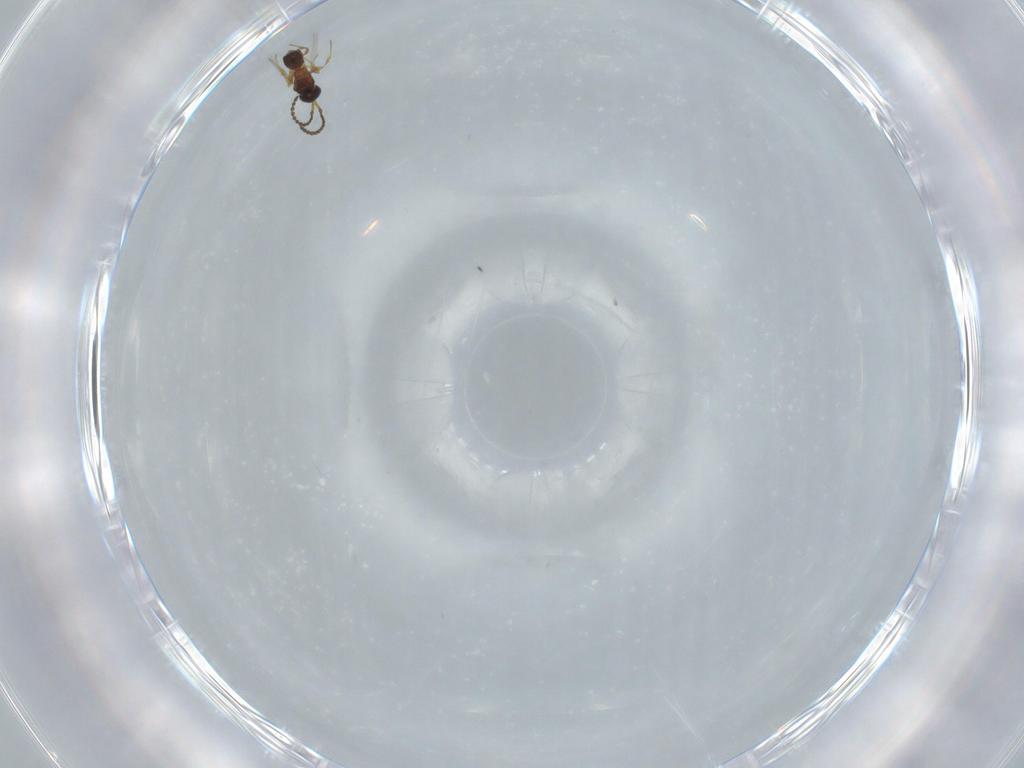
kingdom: Animalia
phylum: Arthropoda
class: Insecta
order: Hymenoptera
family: Diapriidae
